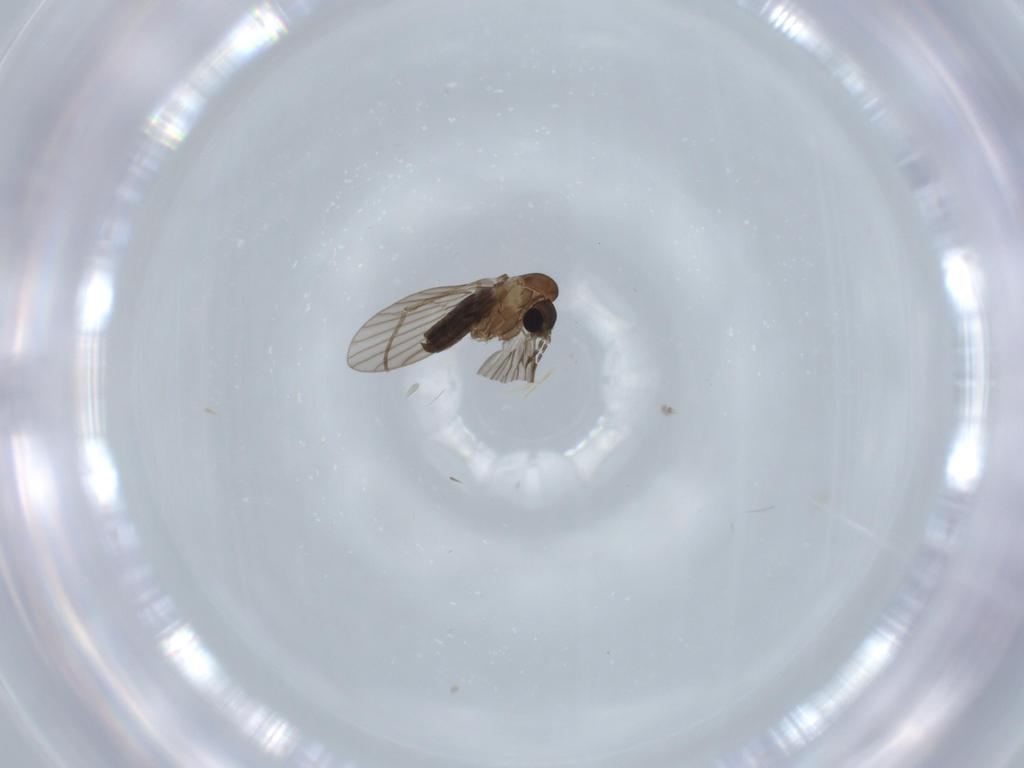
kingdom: Animalia
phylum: Arthropoda
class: Insecta
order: Diptera
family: Psychodidae
